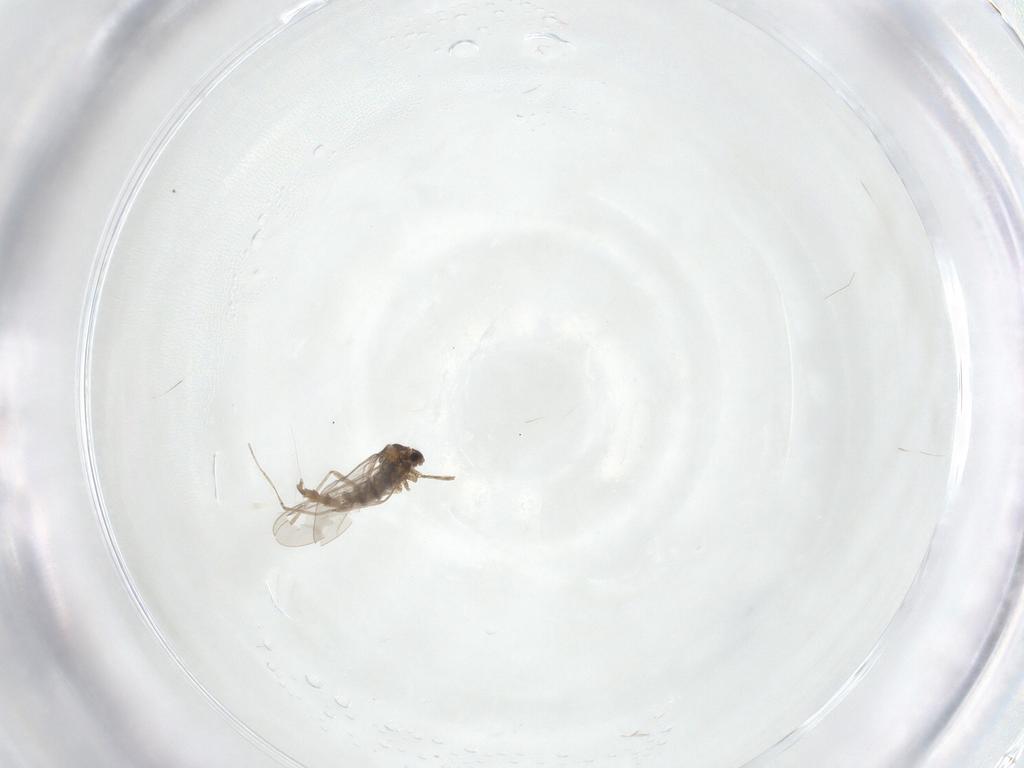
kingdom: Animalia
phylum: Arthropoda
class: Insecta
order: Diptera
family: Cecidomyiidae
